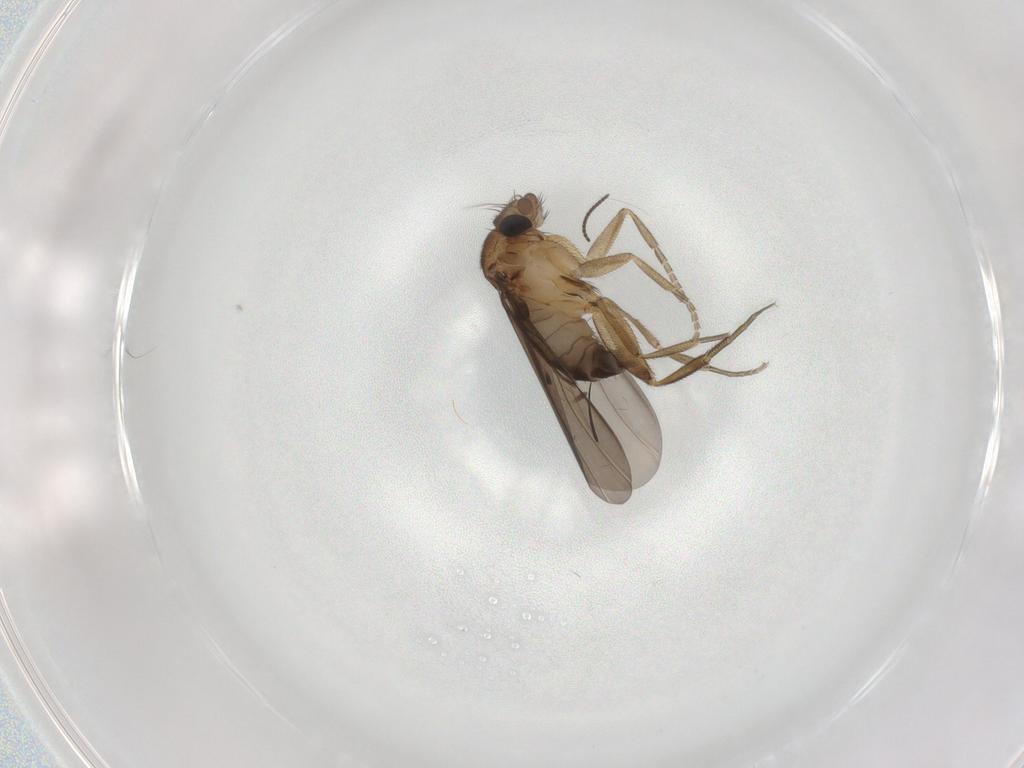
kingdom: Animalia
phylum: Arthropoda
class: Insecta
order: Diptera
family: Phoridae
